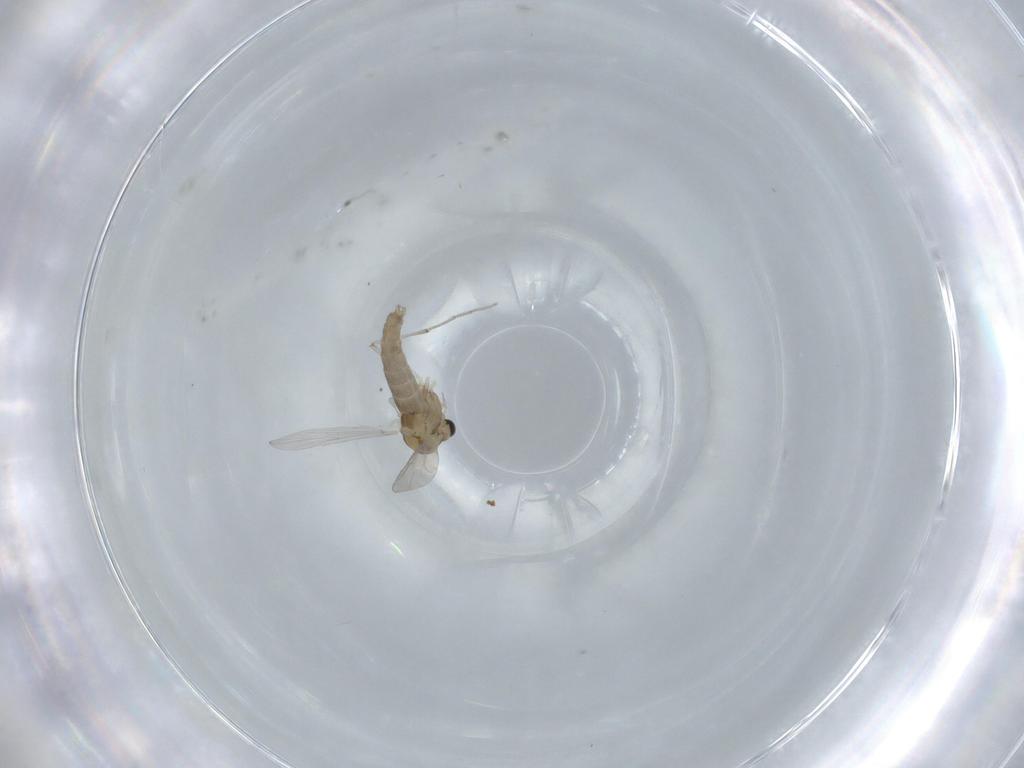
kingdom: Animalia
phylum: Arthropoda
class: Insecta
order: Diptera
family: Chironomidae
